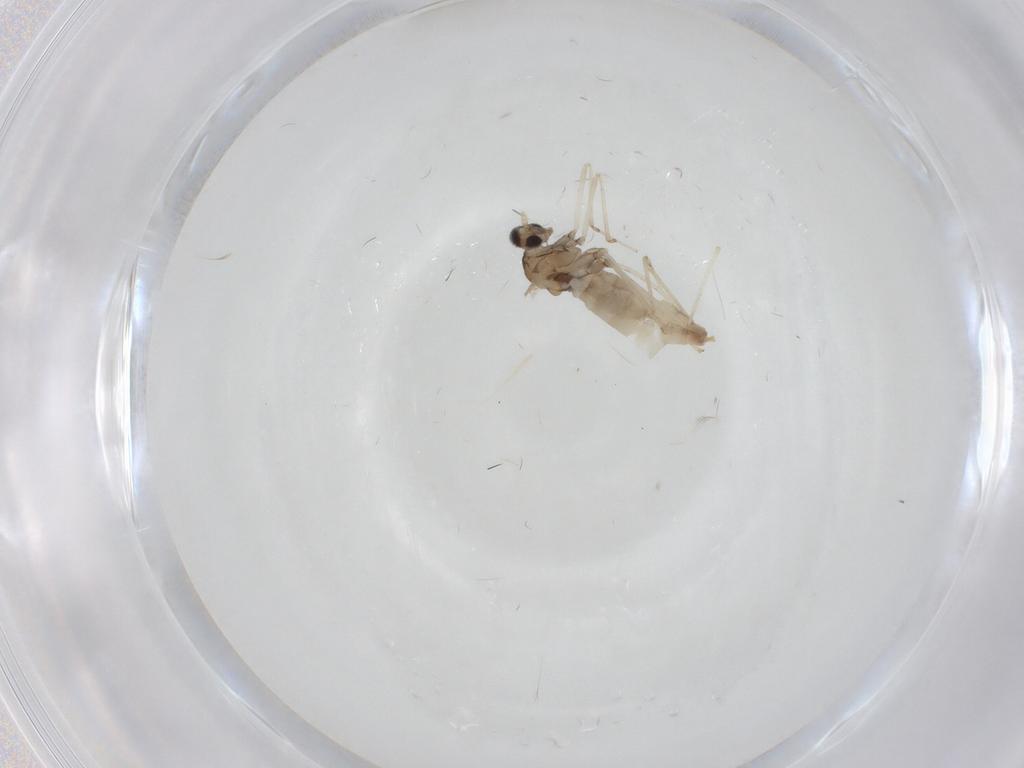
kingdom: Animalia
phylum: Arthropoda
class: Insecta
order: Diptera
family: Cecidomyiidae
